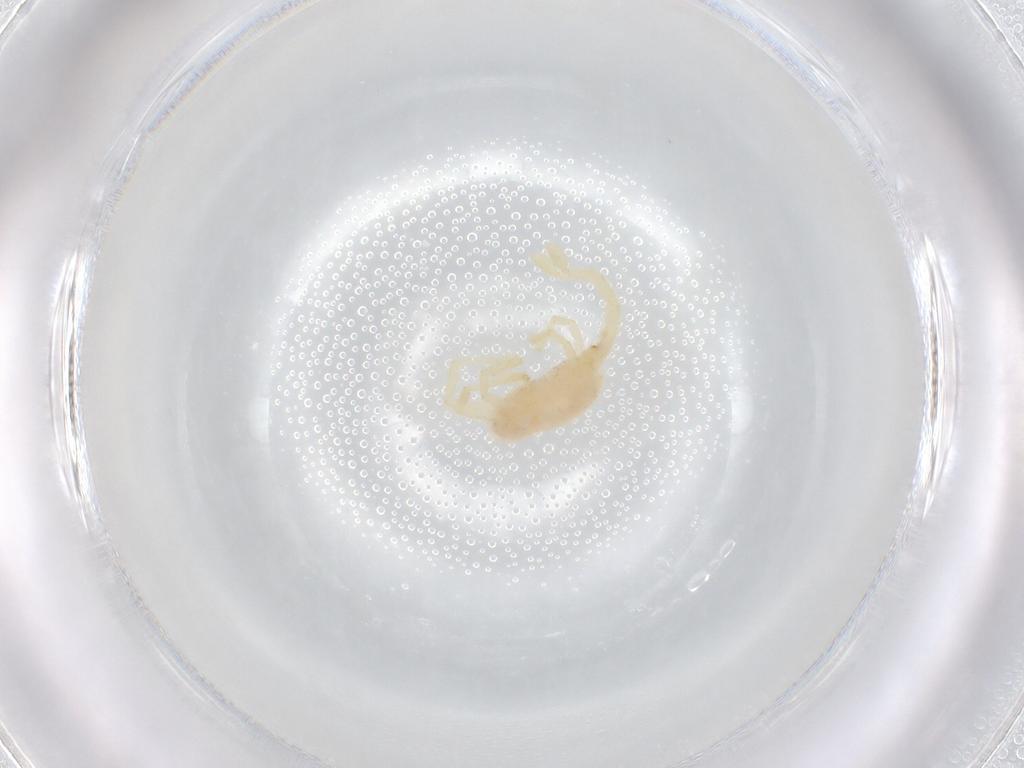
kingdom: Animalia
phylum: Arthropoda
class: Arachnida
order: Trombidiformes
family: Erythraeidae
